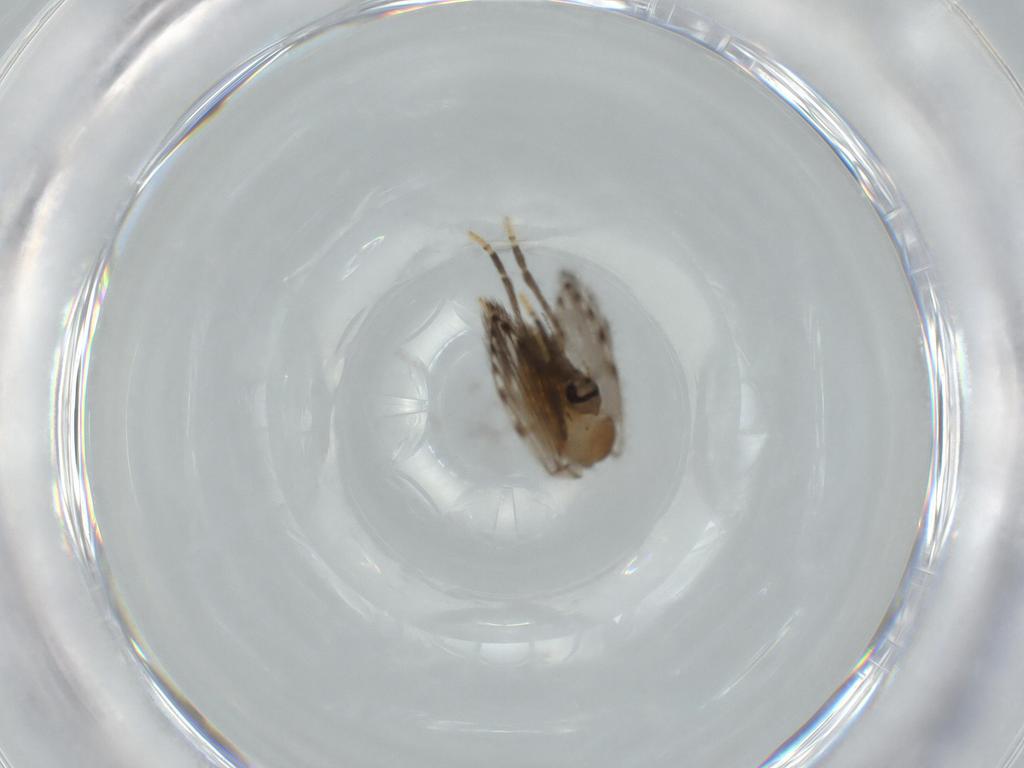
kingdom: Animalia
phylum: Arthropoda
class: Insecta
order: Diptera
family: Psychodidae
